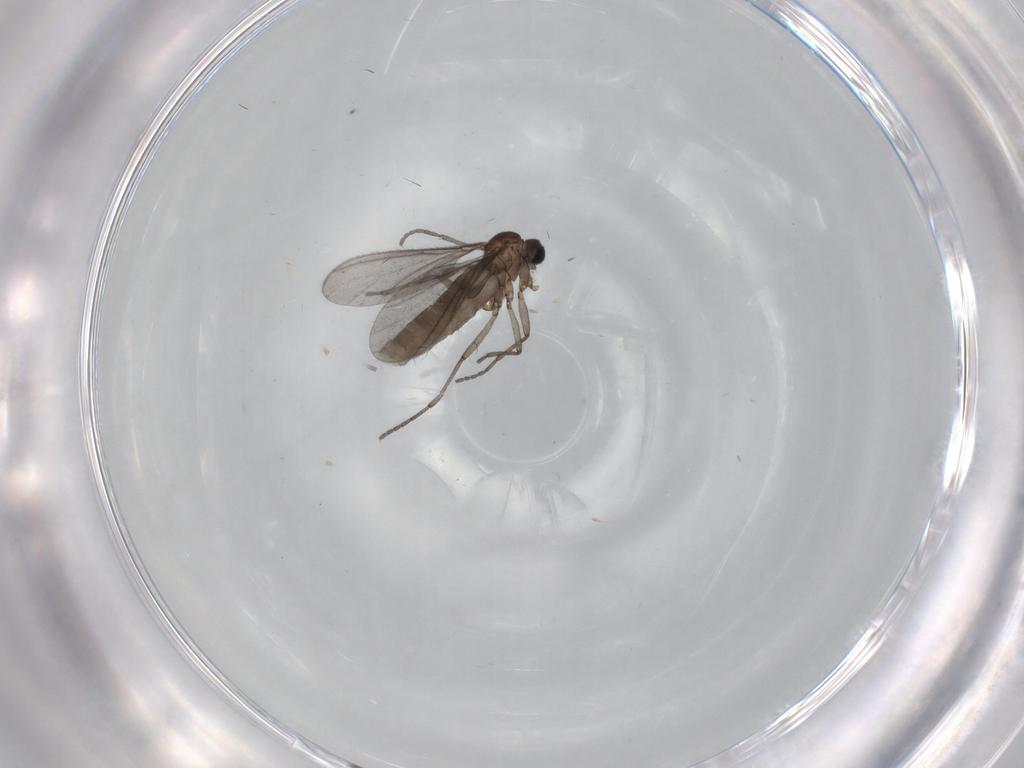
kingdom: Animalia
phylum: Arthropoda
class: Insecta
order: Diptera
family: Sciaridae
